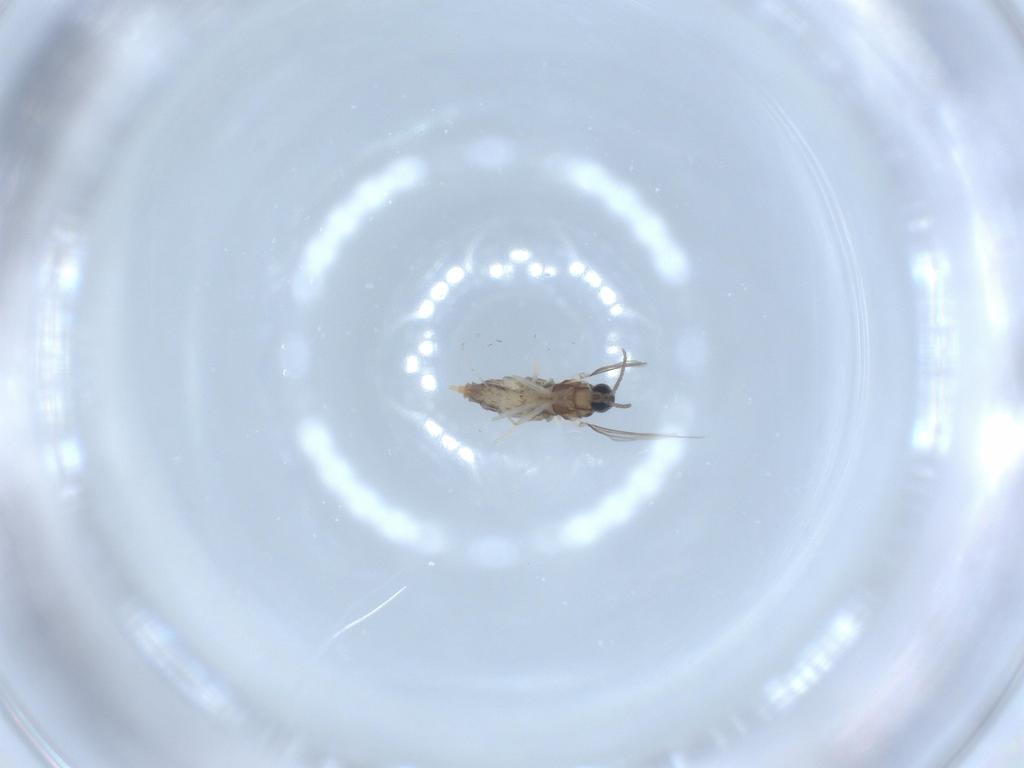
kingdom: Animalia
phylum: Arthropoda
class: Insecta
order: Diptera
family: Cecidomyiidae
